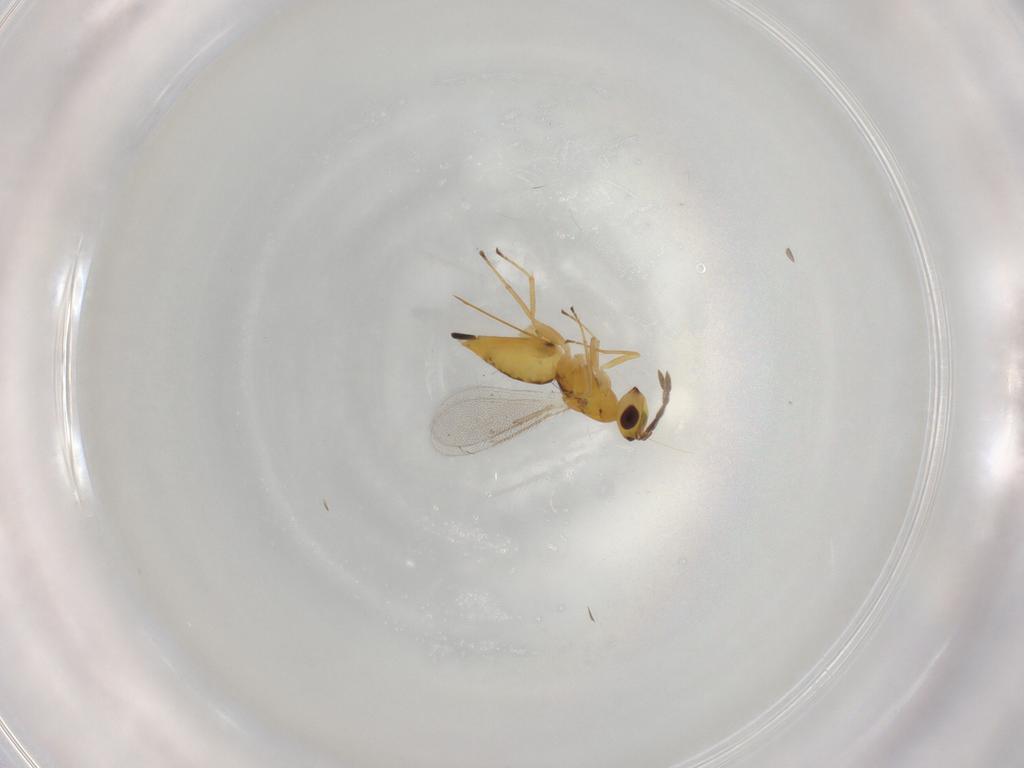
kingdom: Animalia
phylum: Arthropoda
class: Insecta
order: Hymenoptera
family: Eulophidae
